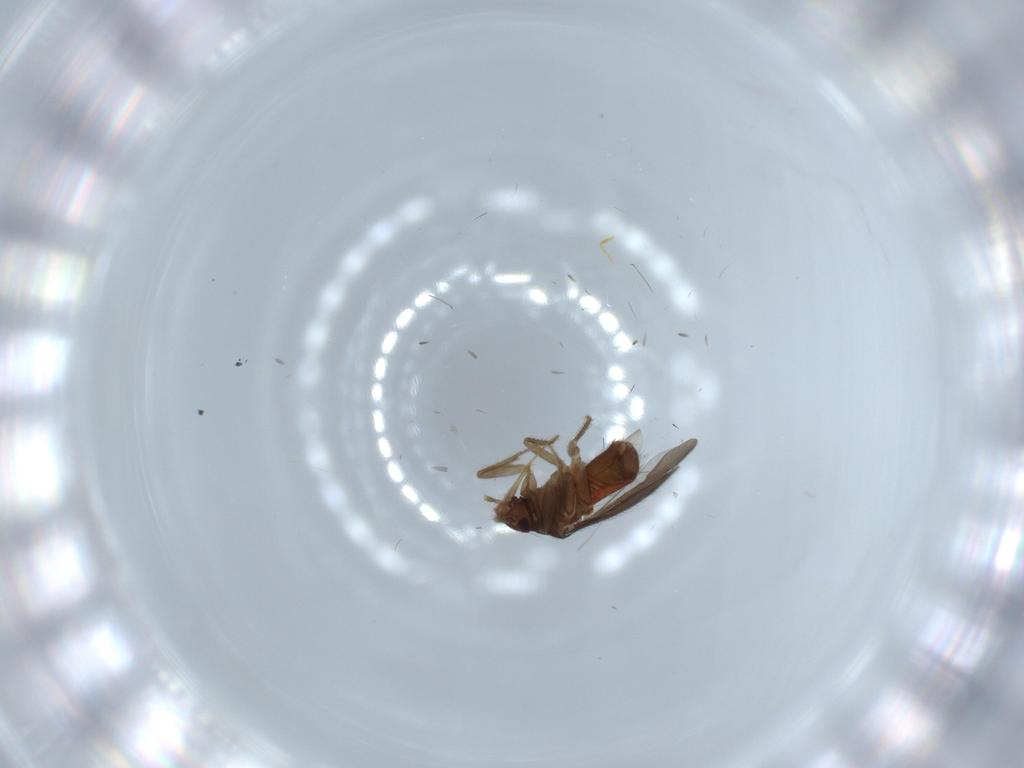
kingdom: Animalia
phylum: Arthropoda
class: Insecta
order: Hemiptera
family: Ceratocombidae
